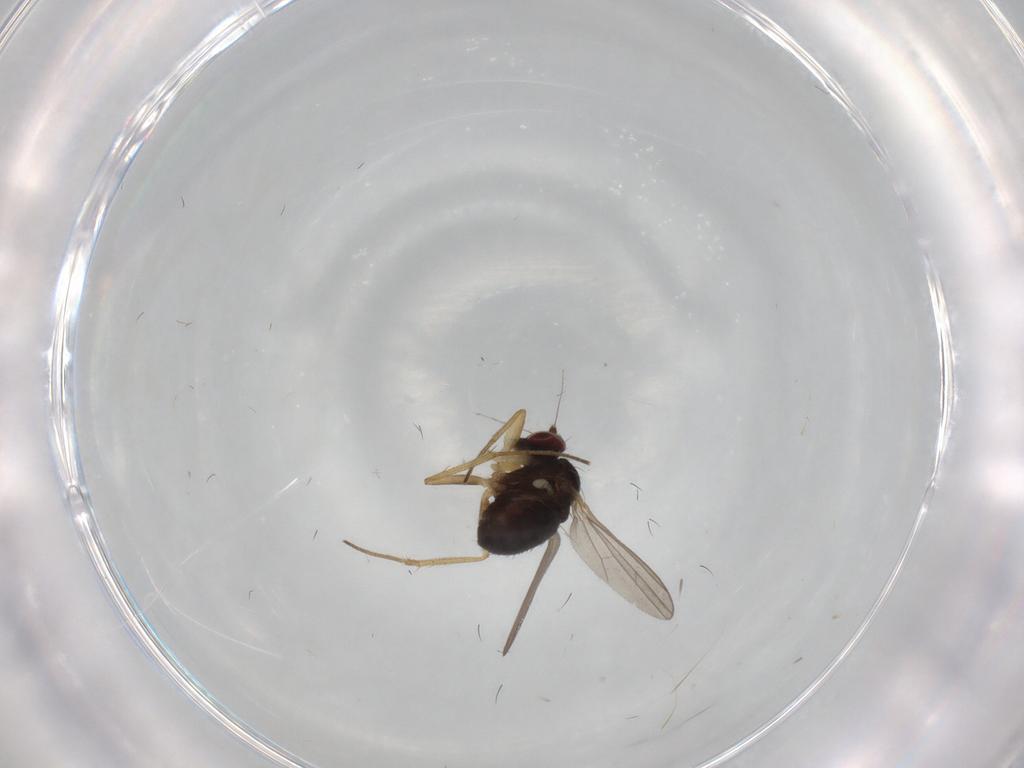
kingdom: Animalia
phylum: Arthropoda
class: Insecta
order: Diptera
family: Dolichopodidae
